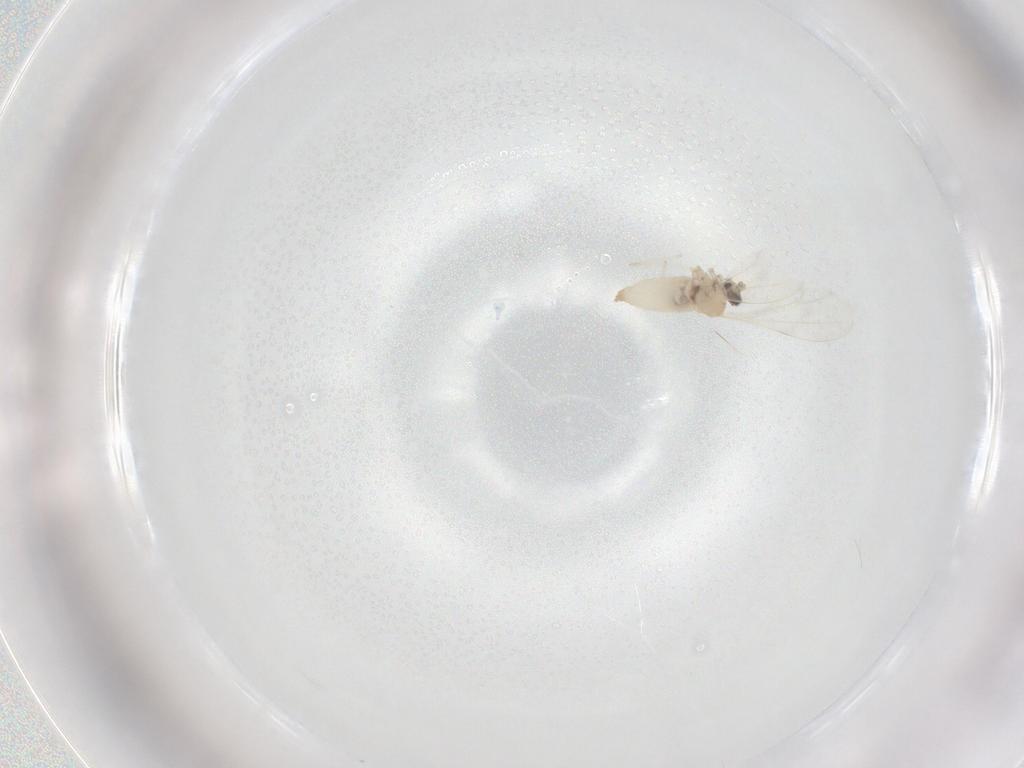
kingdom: Animalia
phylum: Arthropoda
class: Insecta
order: Diptera
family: Cecidomyiidae
